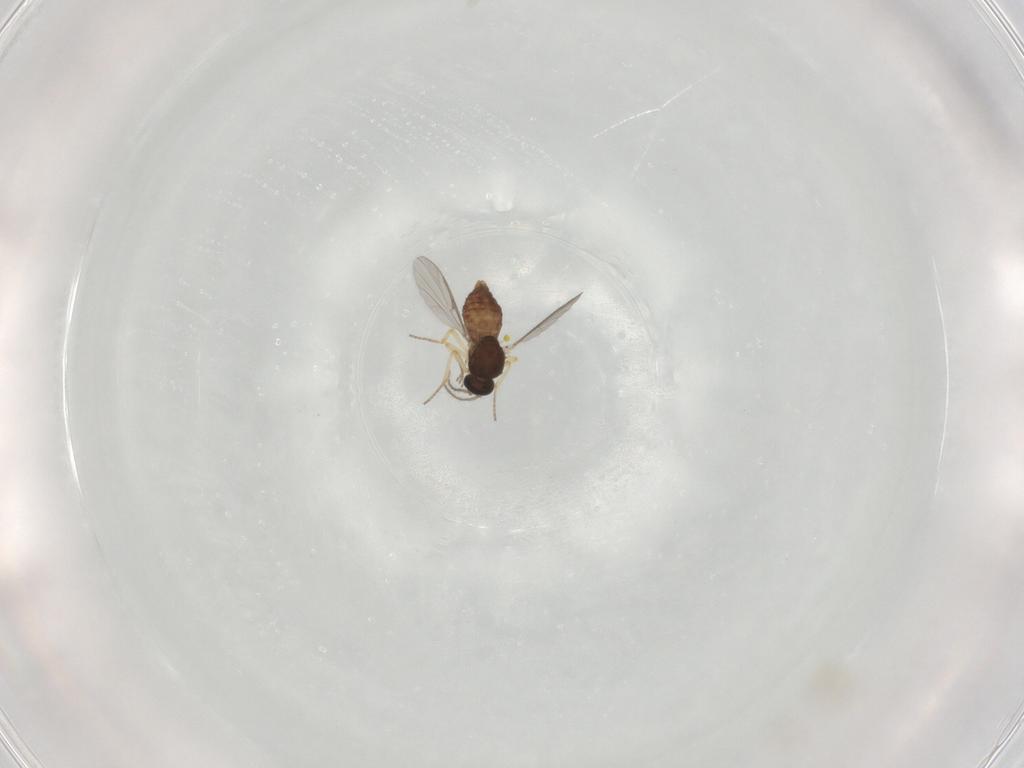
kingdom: Animalia
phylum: Arthropoda
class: Insecta
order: Diptera
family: Ceratopogonidae
